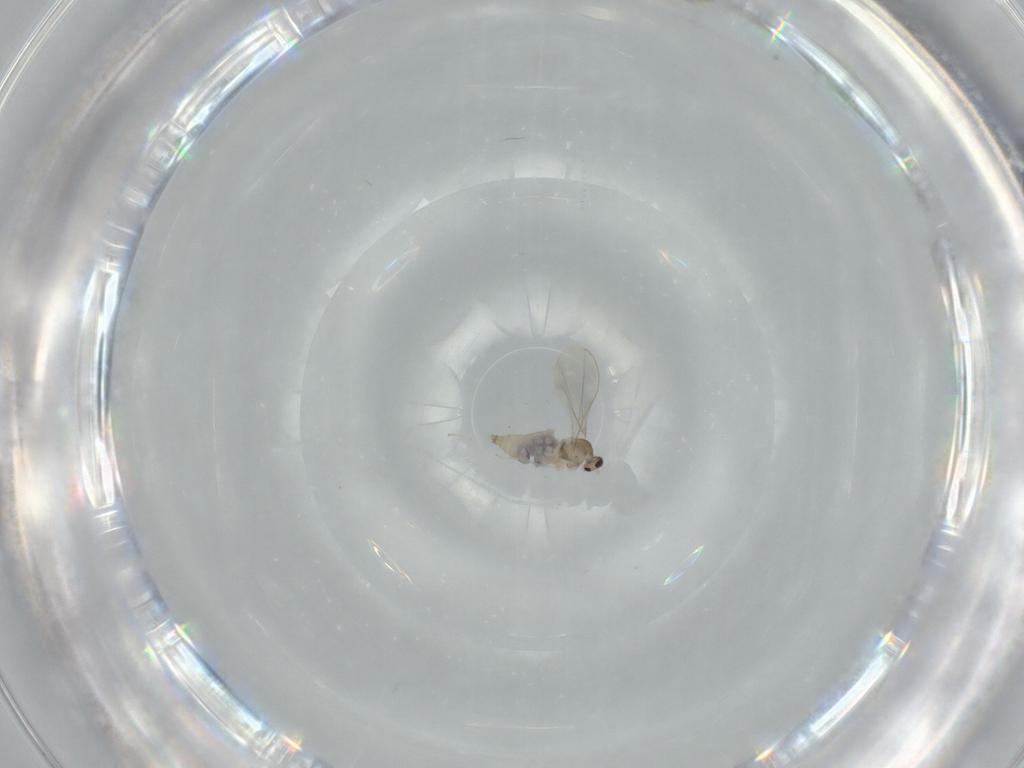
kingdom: Animalia
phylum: Arthropoda
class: Insecta
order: Diptera
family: Cecidomyiidae
